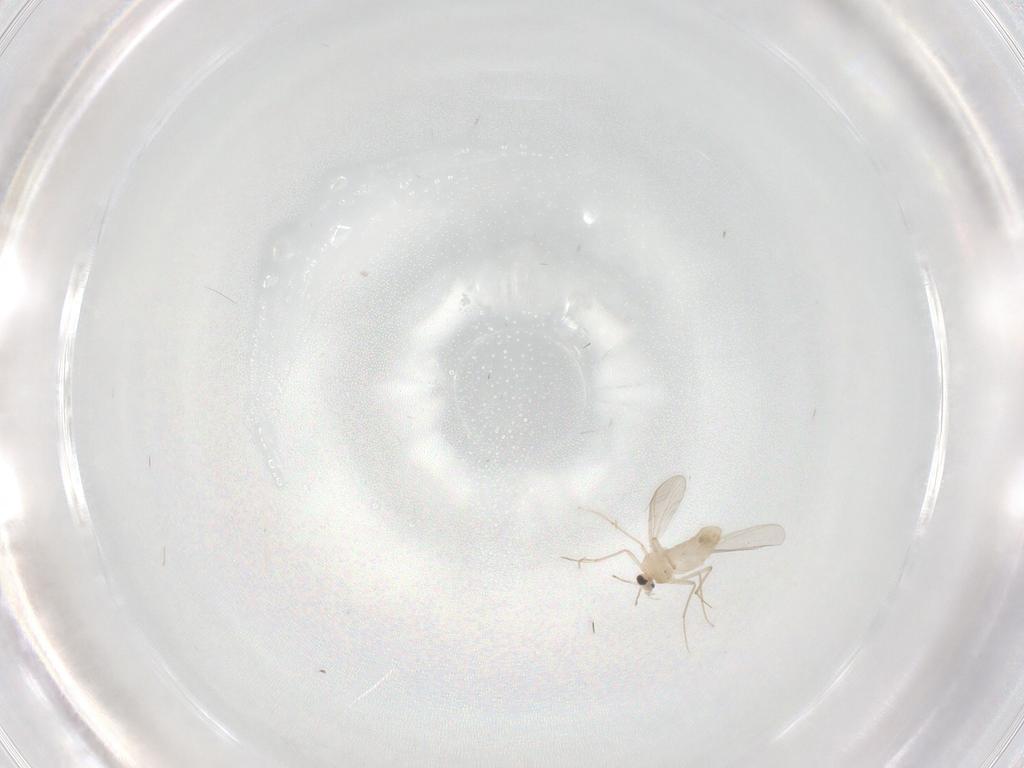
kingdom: Animalia
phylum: Arthropoda
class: Insecta
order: Diptera
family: Chironomidae
